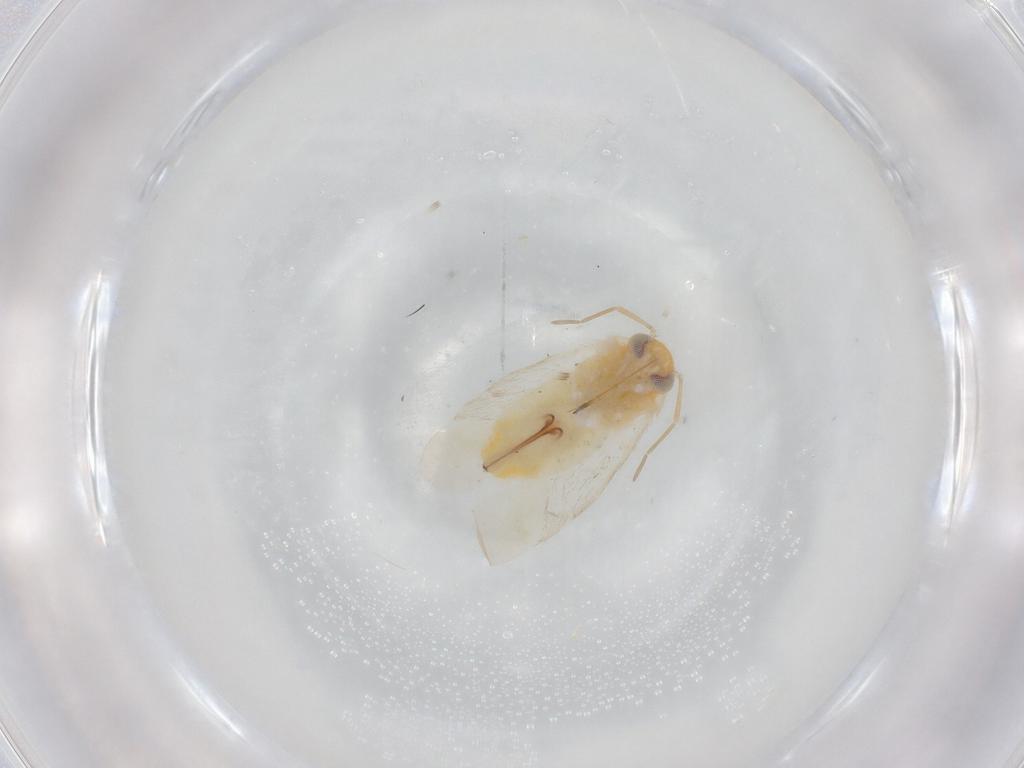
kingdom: Animalia
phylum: Arthropoda
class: Insecta
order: Hemiptera
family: Miridae
